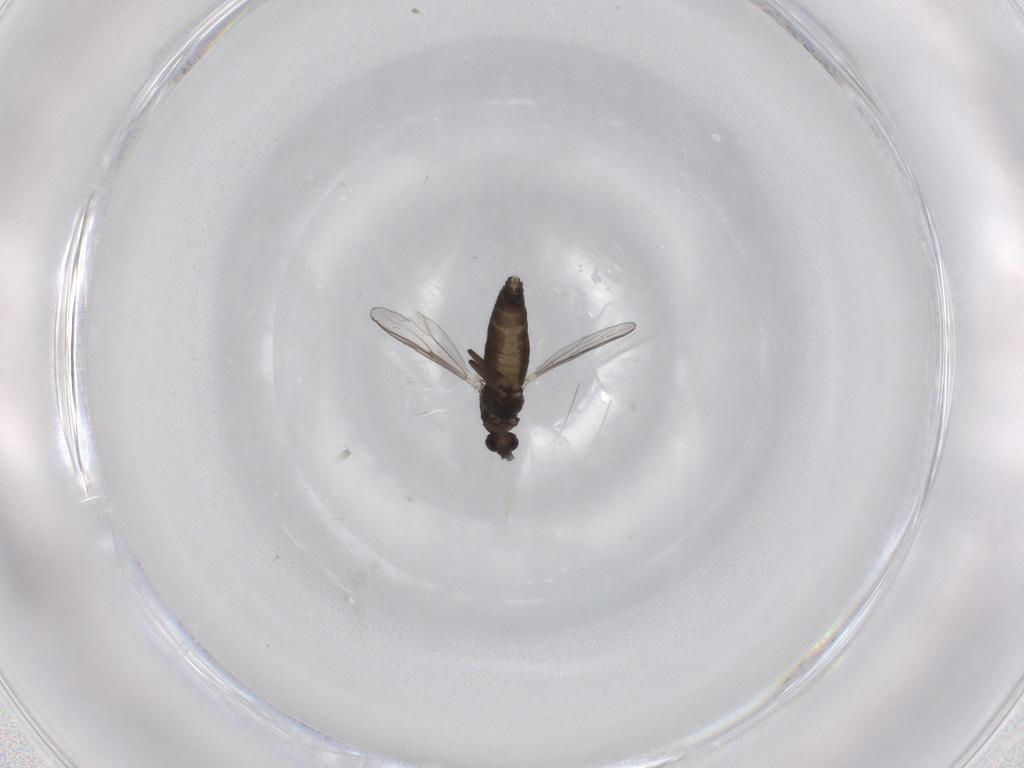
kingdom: Animalia
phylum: Arthropoda
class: Insecta
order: Diptera
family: Chironomidae
